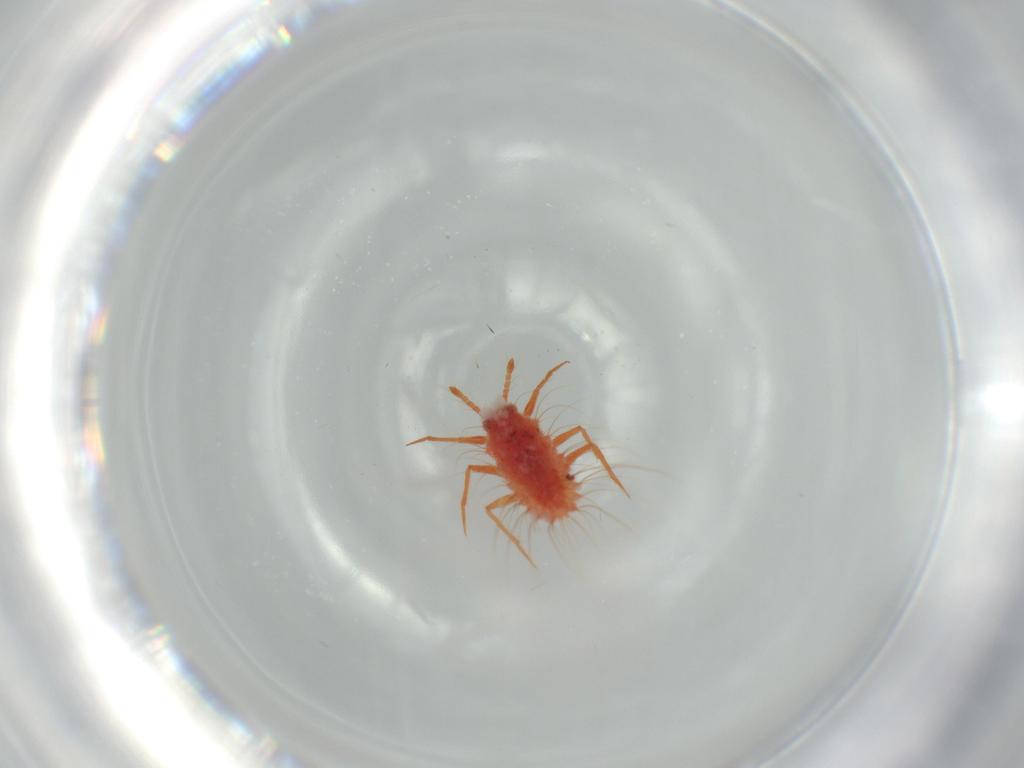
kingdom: Animalia
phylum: Arthropoda
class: Insecta
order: Hemiptera
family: Monophlebidae
